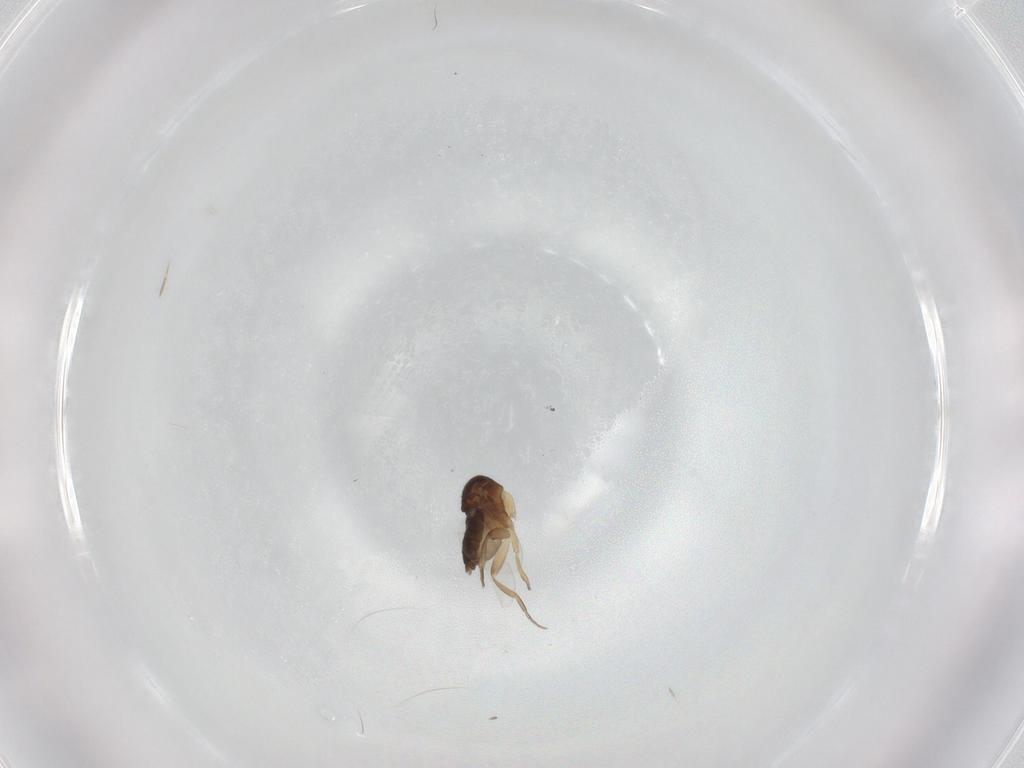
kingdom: Animalia
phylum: Arthropoda
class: Insecta
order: Diptera
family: Phoridae
